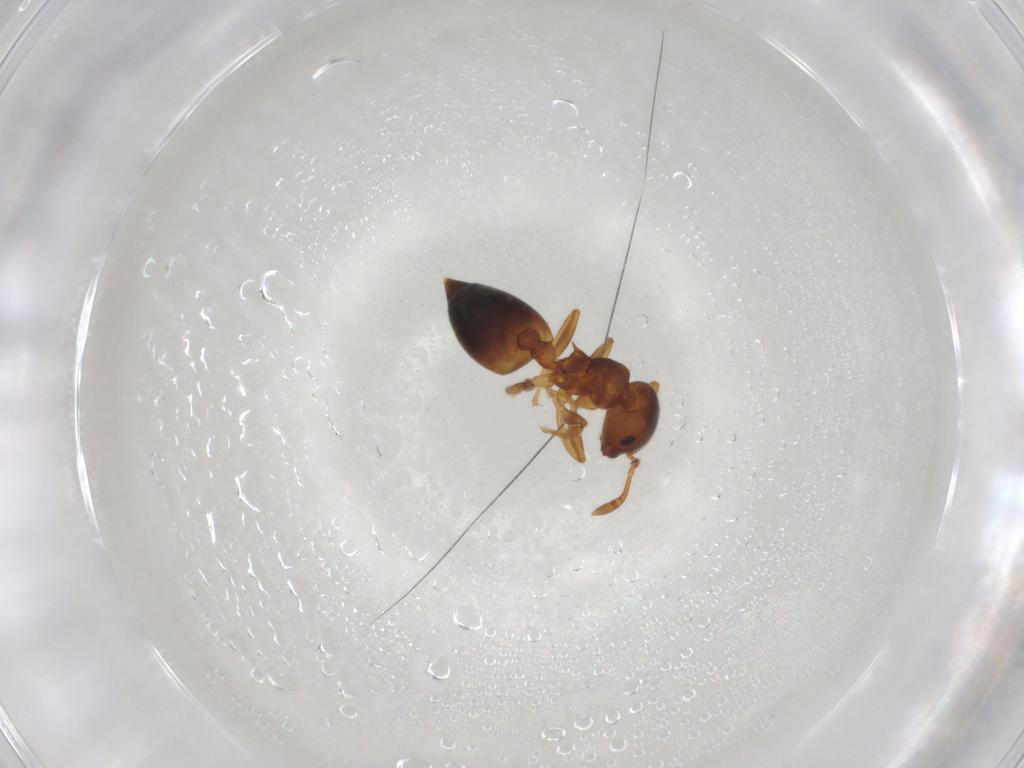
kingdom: Animalia
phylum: Arthropoda
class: Insecta
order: Hymenoptera
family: Formicidae
